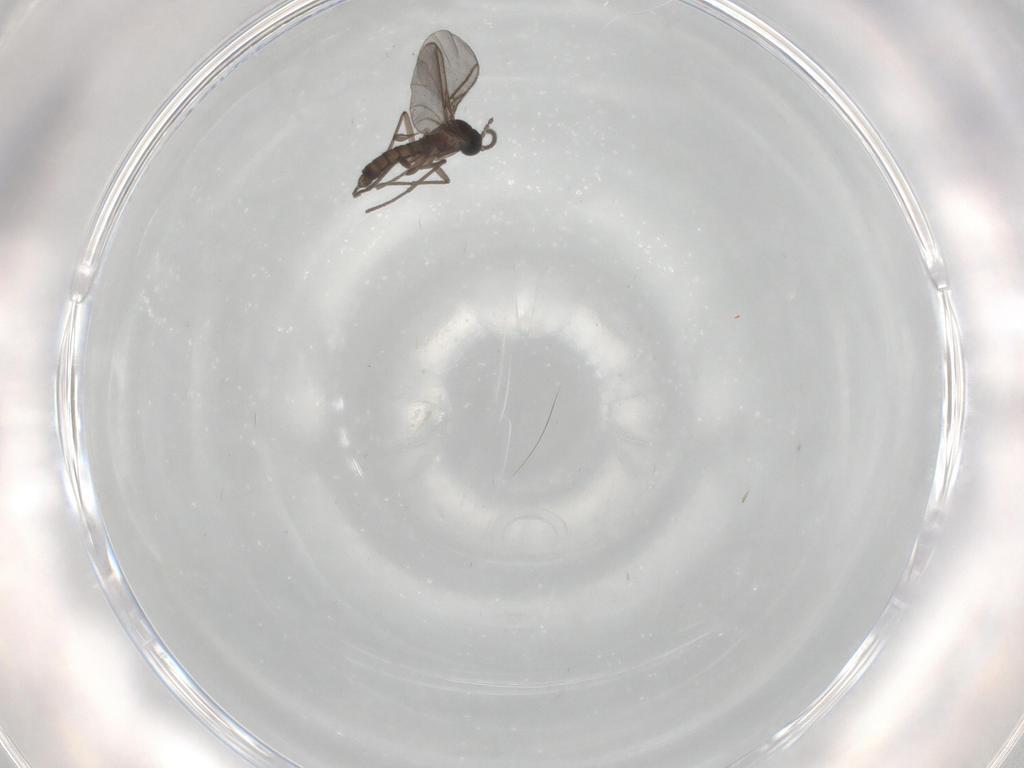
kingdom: Animalia
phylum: Arthropoda
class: Insecta
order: Diptera
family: Sciaridae
